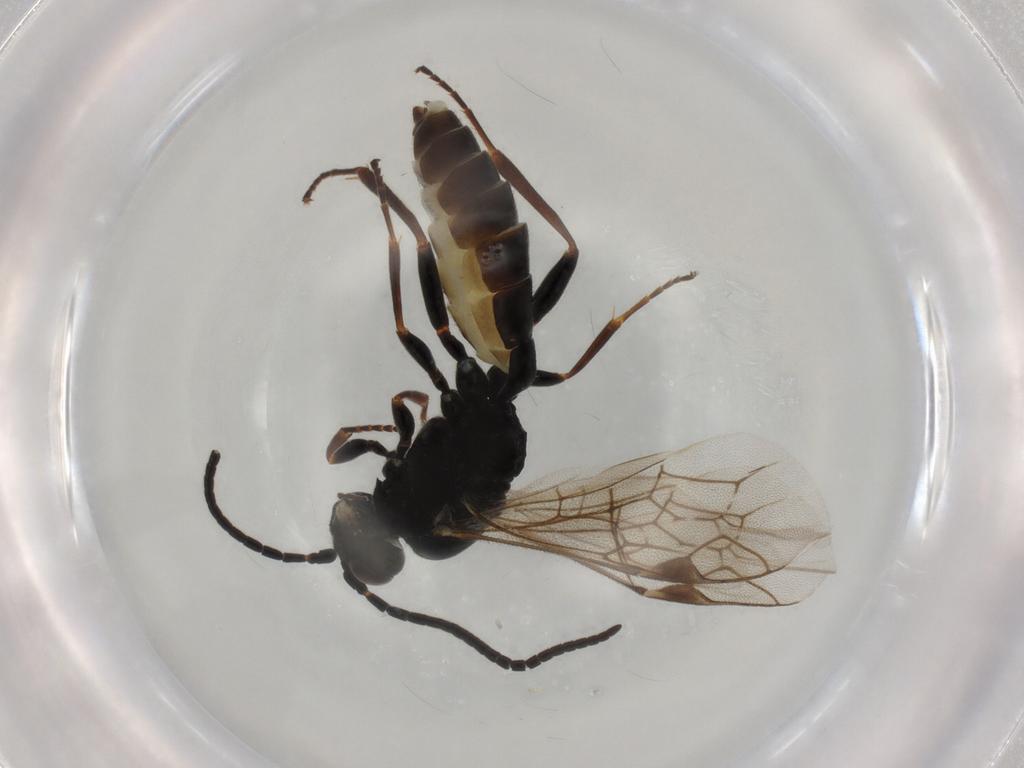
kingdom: Animalia
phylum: Arthropoda
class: Insecta
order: Hymenoptera
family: Ichneumonidae
